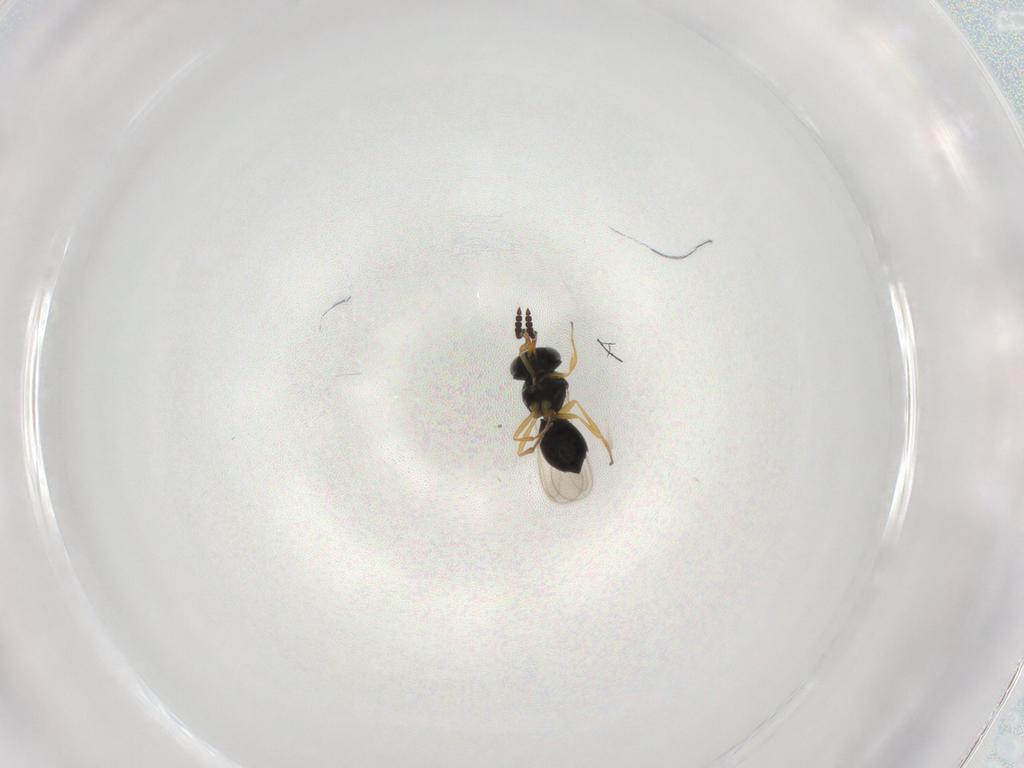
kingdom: Animalia
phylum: Arthropoda
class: Insecta
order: Hymenoptera
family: Scelionidae
